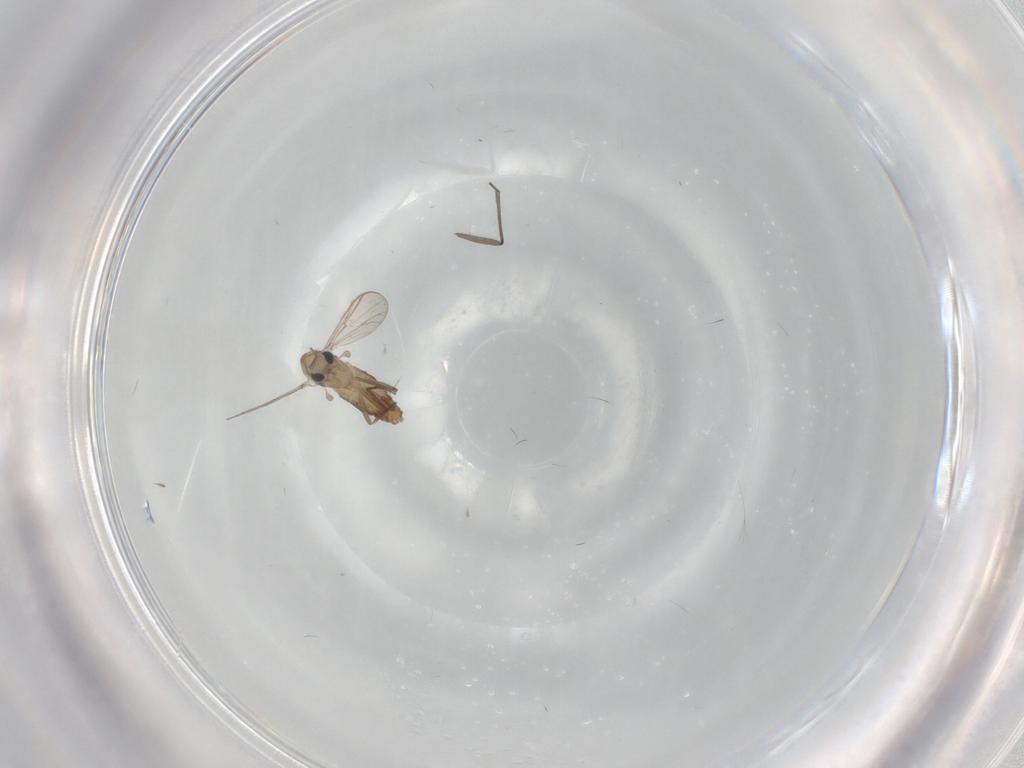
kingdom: Animalia
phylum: Arthropoda
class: Insecta
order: Diptera
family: Chironomidae
